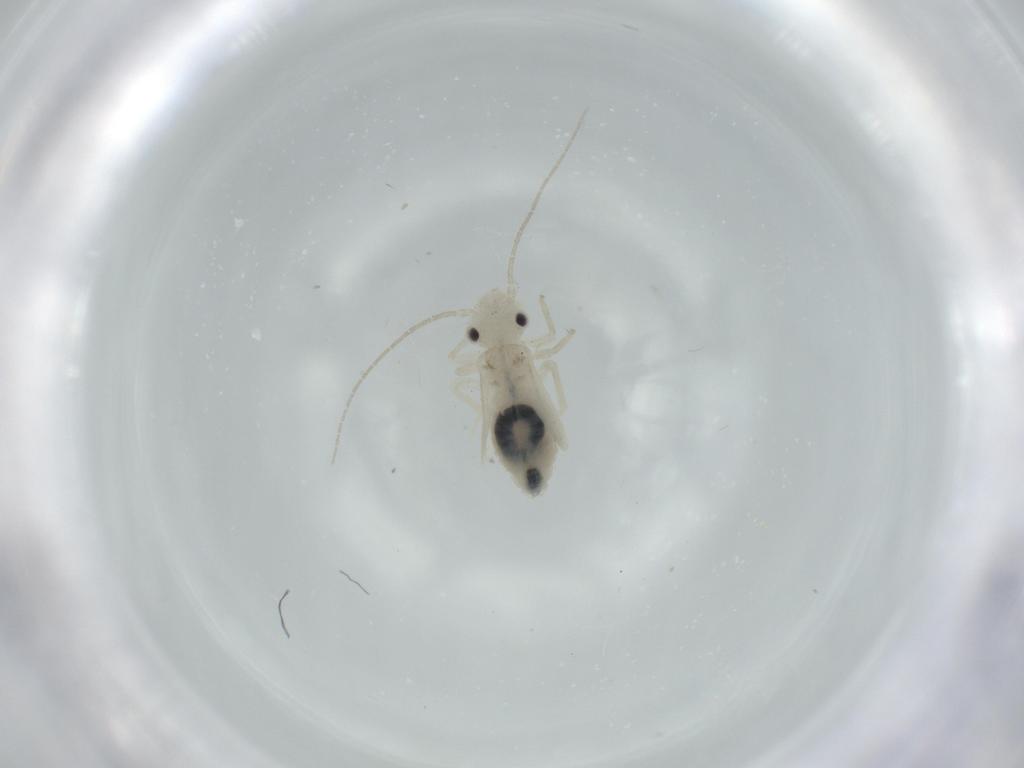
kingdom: Animalia
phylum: Arthropoda
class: Insecta
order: Psocodea
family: Caeciliusidae
